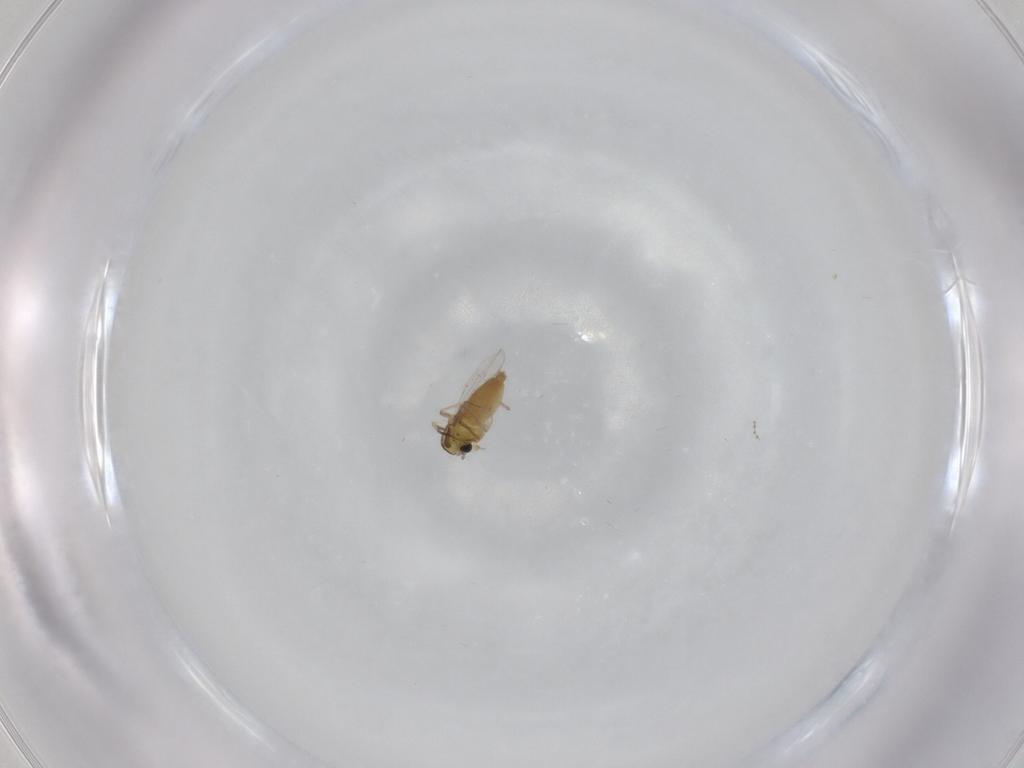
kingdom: Animalia
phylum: Arthropoda
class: Insecta
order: Diptera
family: Chironomidae
